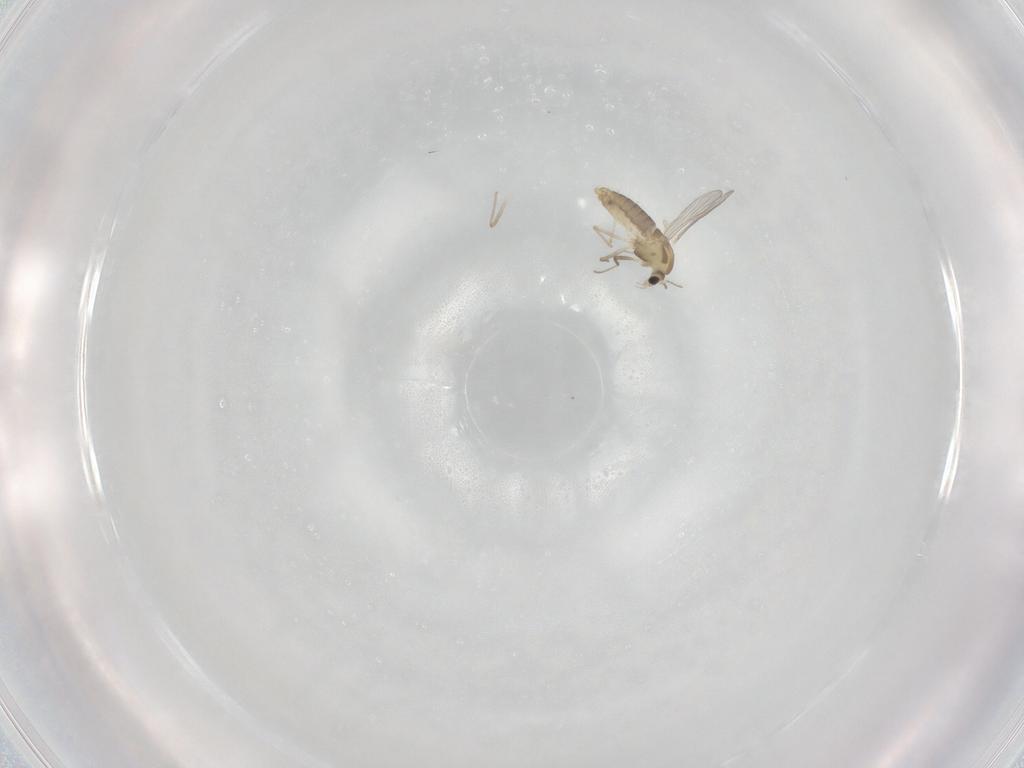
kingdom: Animalia
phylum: Arthropoda
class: Insecta
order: Diptera
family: Chironomidae
